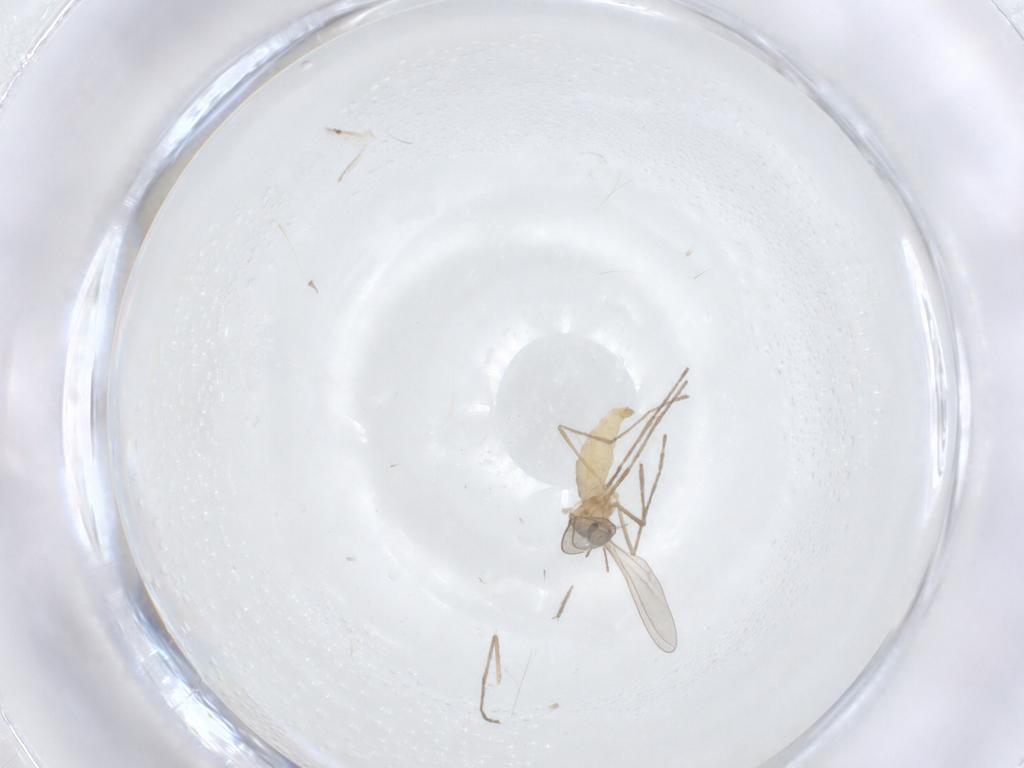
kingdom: Animalia
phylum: Arthropoda
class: Insecta
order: Diptera
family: Cecidomyiidae
